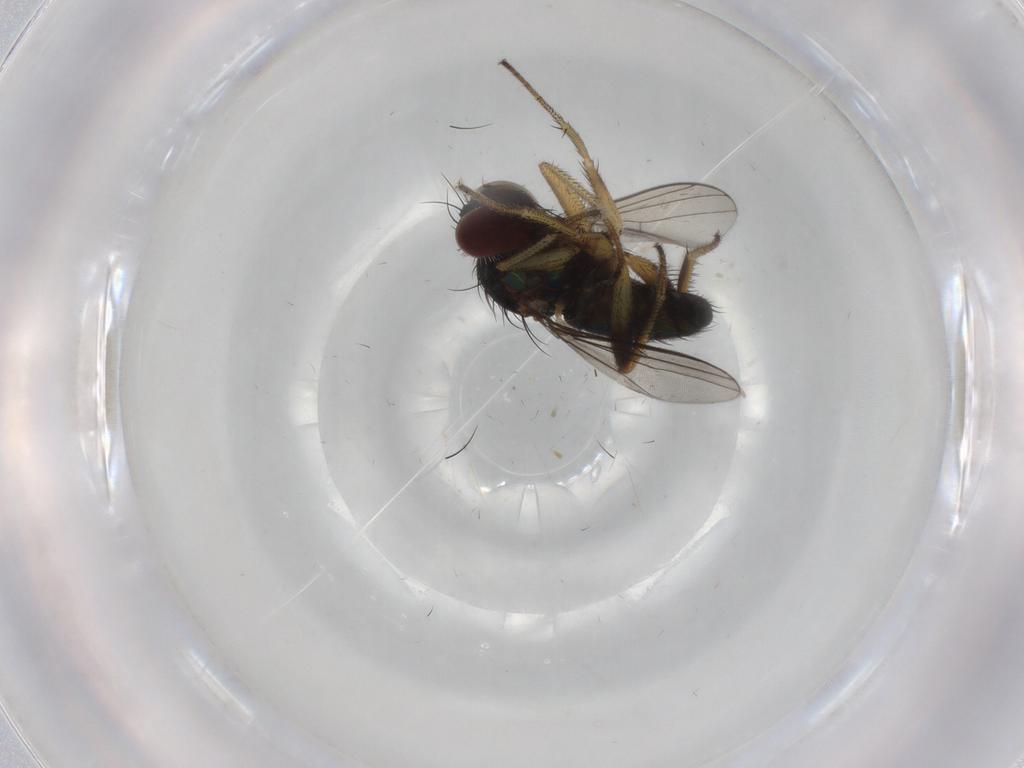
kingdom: Animalia
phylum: Arthropoda
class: Insecta
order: Diptera
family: Dolichopodidae
